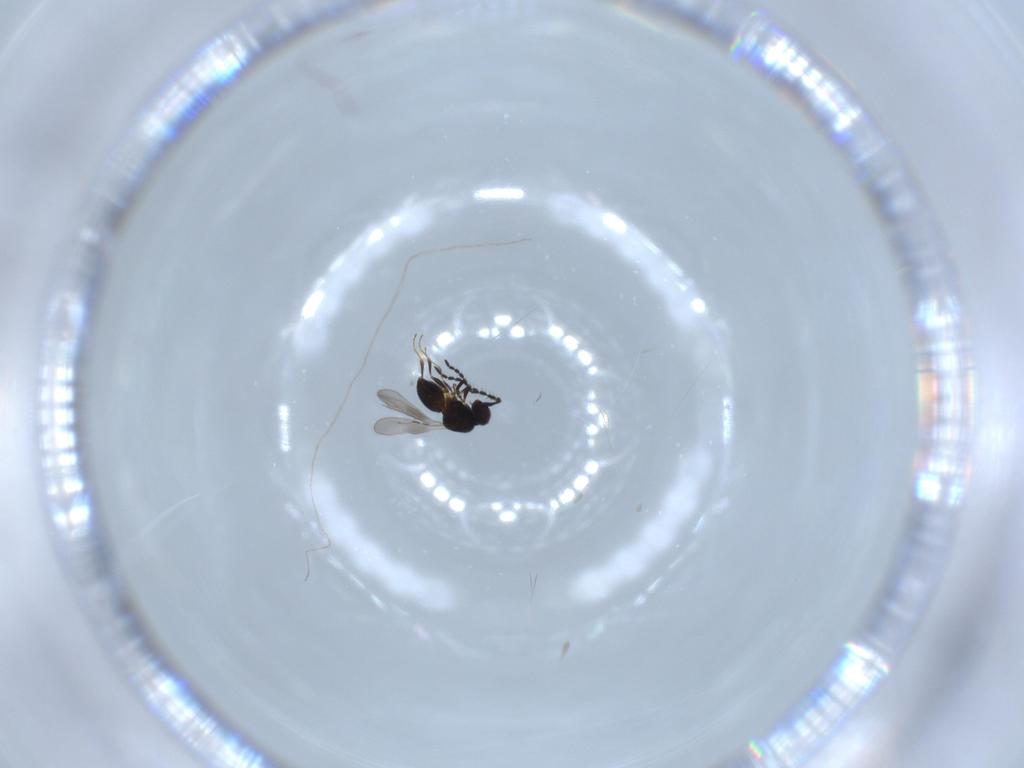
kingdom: Animalia
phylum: Arthropoda
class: Insecta
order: Hymenoptera
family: Ceraphronidae
